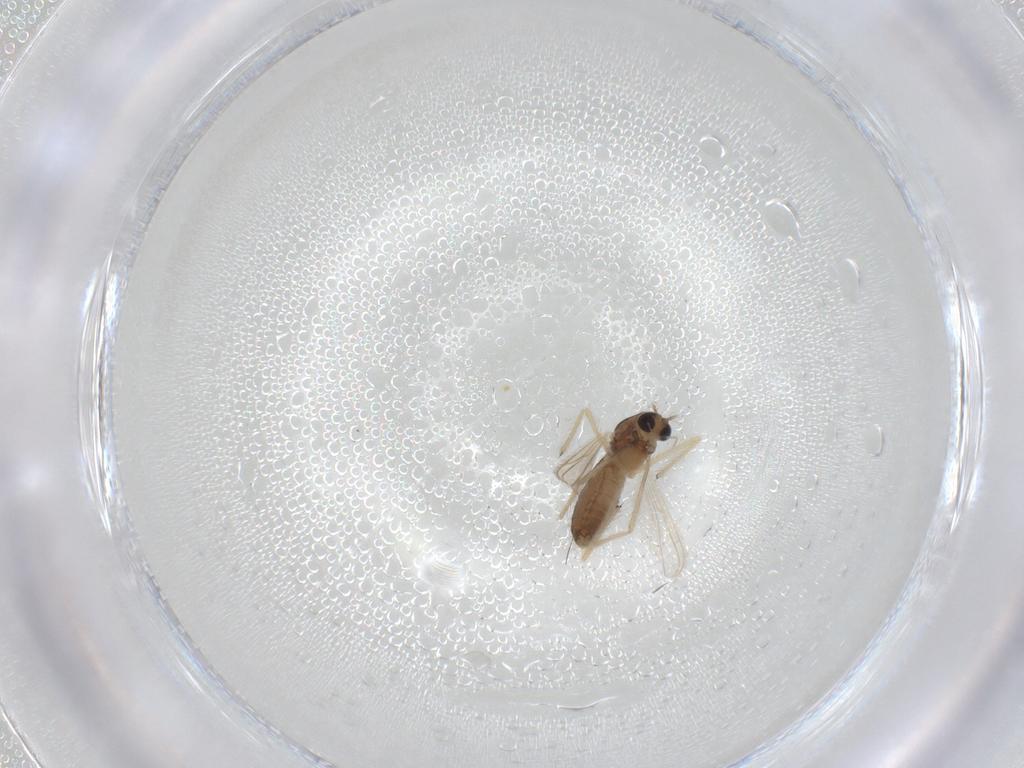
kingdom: Animalia
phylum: Arthropoda
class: Insecta
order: Diptera
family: Chironomidae
